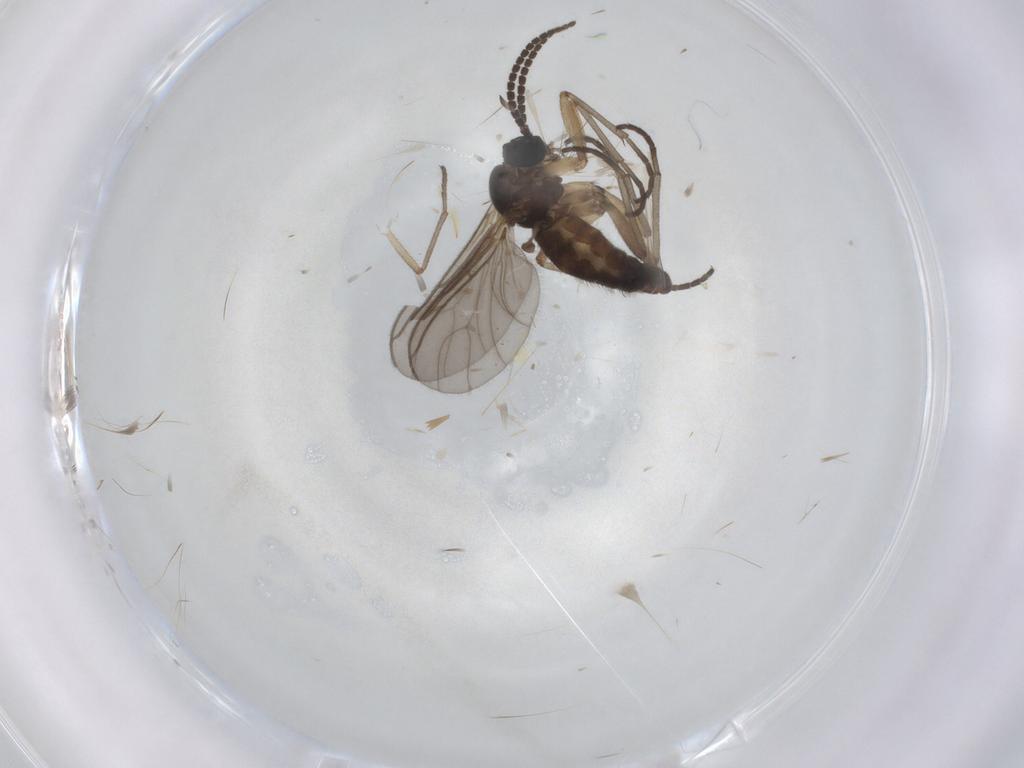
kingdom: Animalia
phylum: Arthropoda
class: Insecta
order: Diptera
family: Sciaridae
